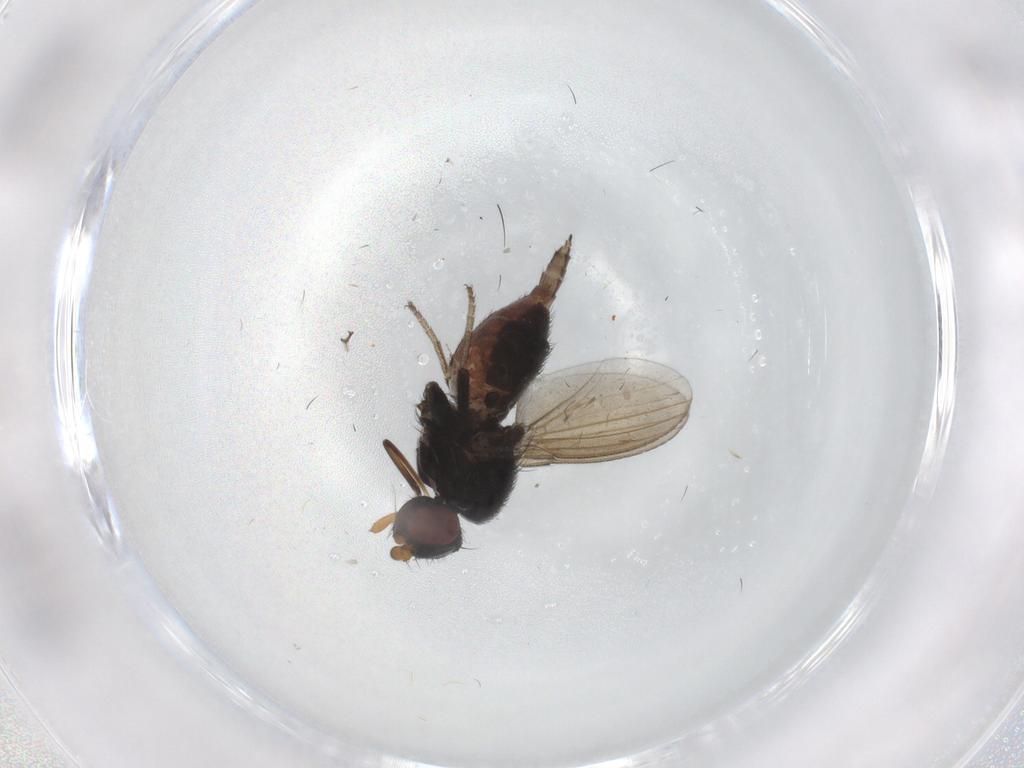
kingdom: Animalia
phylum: Arthropoda
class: Insecta
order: Diptera
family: Milichiidae
